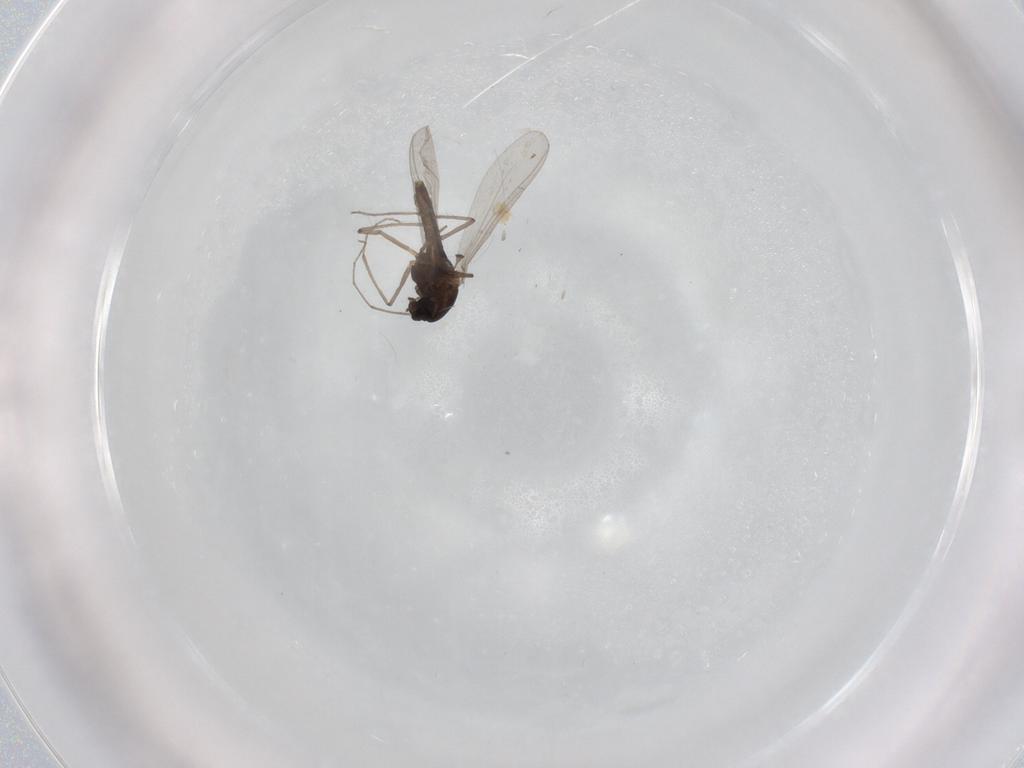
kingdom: Animalia
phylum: Arthropoda
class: Insecta
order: Diptera
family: Chironomidae
